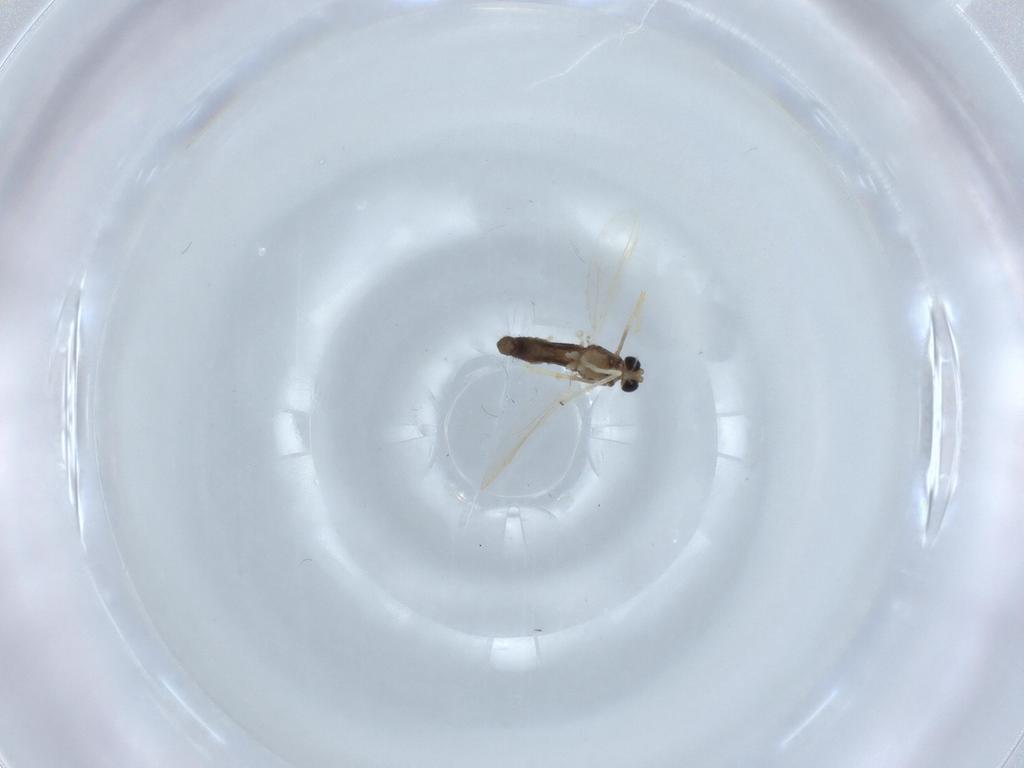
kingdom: Animalia
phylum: Arthropoda
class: Insecta
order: Diptera
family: Chironomidae
